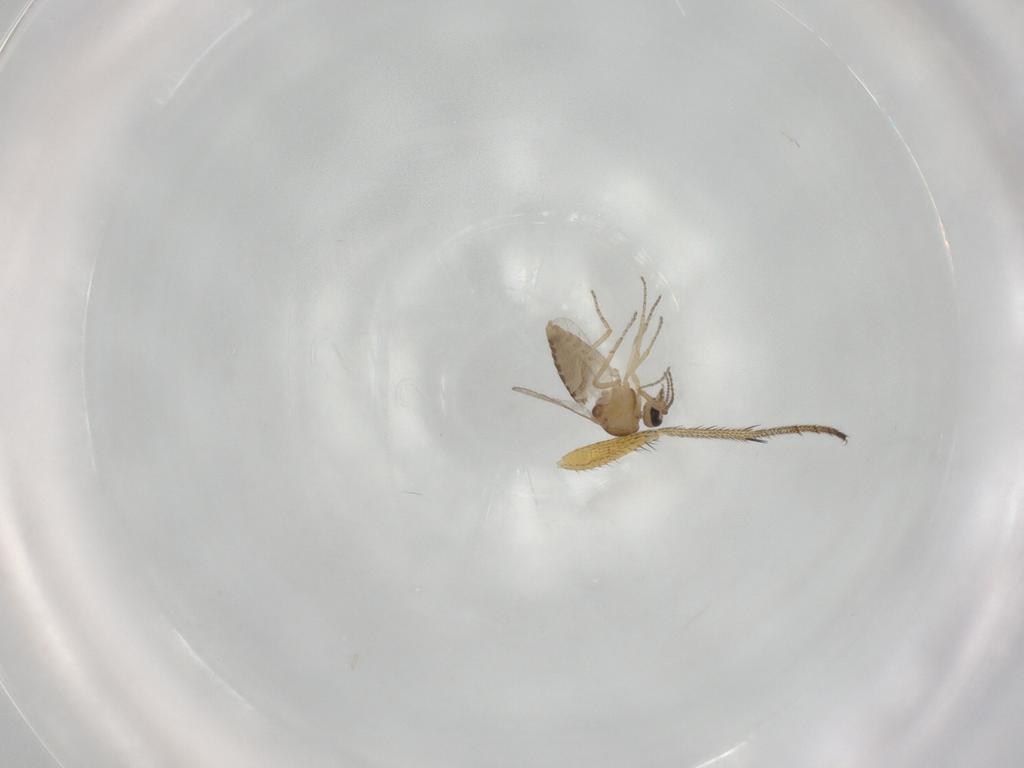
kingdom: Animalia
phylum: Arthropoda
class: Insecta
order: Diptera
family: Ceratopogonidae
